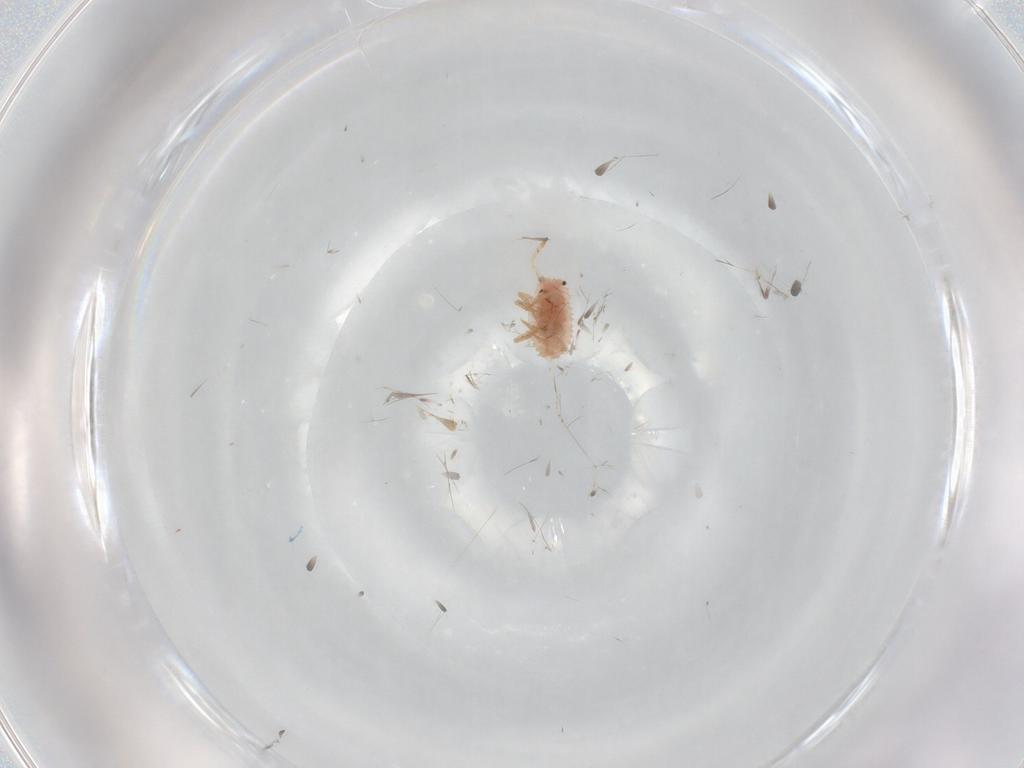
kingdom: Animalia
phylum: Arthropoda
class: Insecta
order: Hemiptera
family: Coccoidea_incertae_sedis
